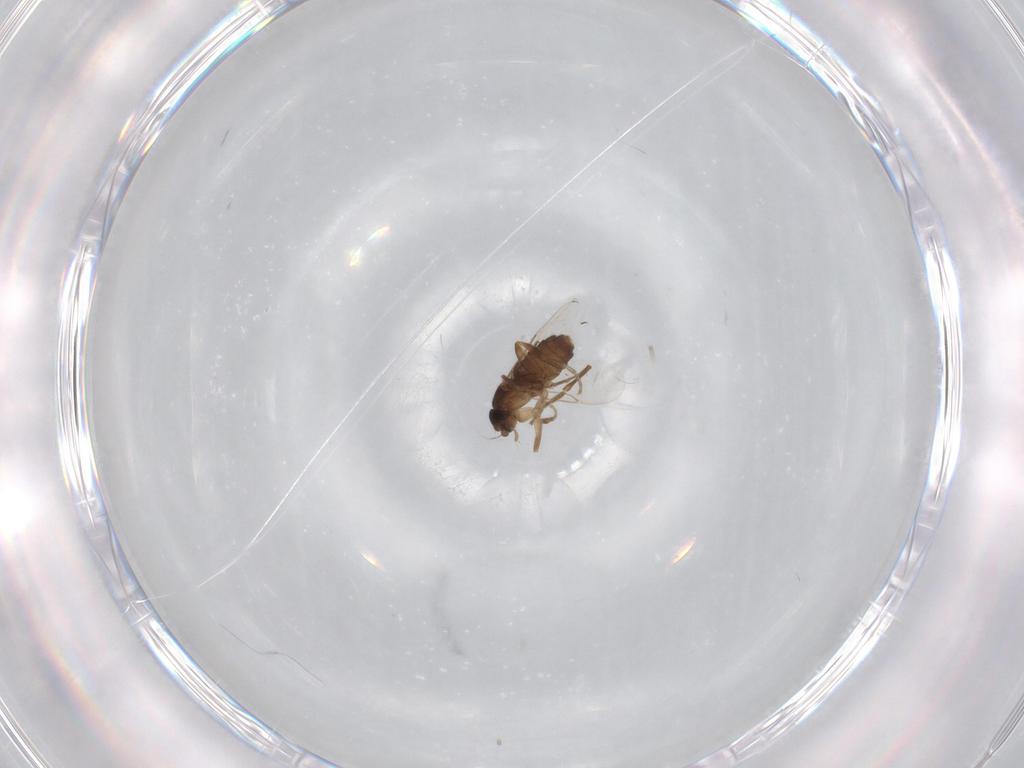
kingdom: Animalia
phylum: Arthropoda
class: Insecta
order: Diptera
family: Phoridae
